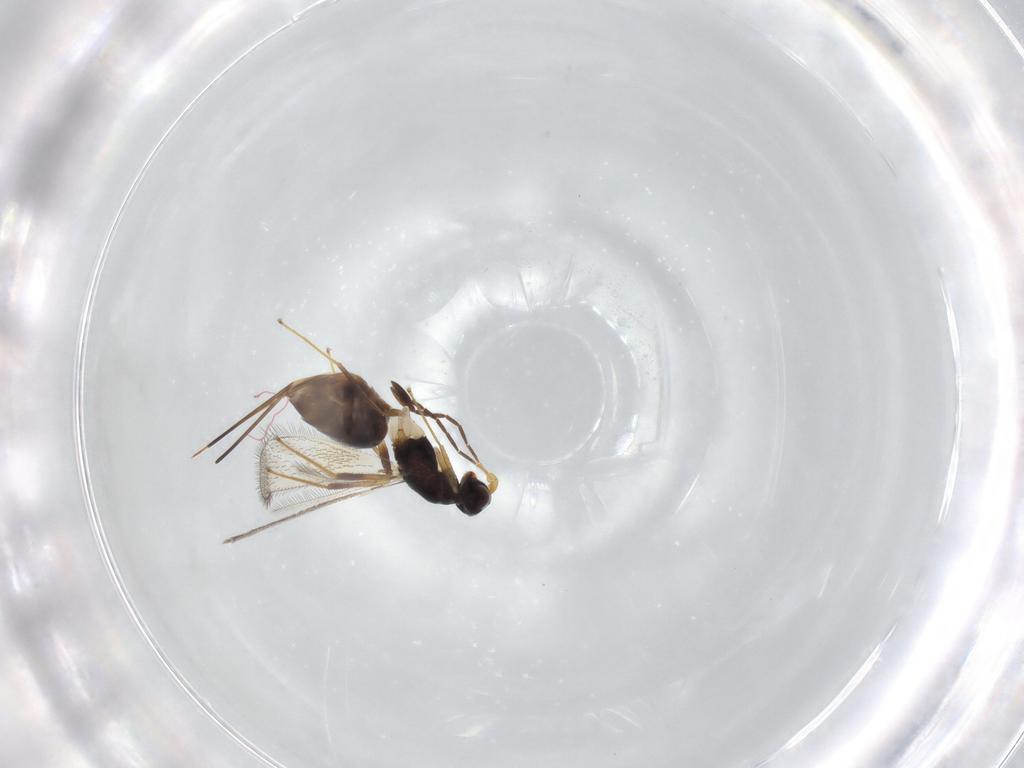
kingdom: Animalia
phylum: Arthropoda
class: Insecta
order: Hymenoptera
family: Mymaridae
